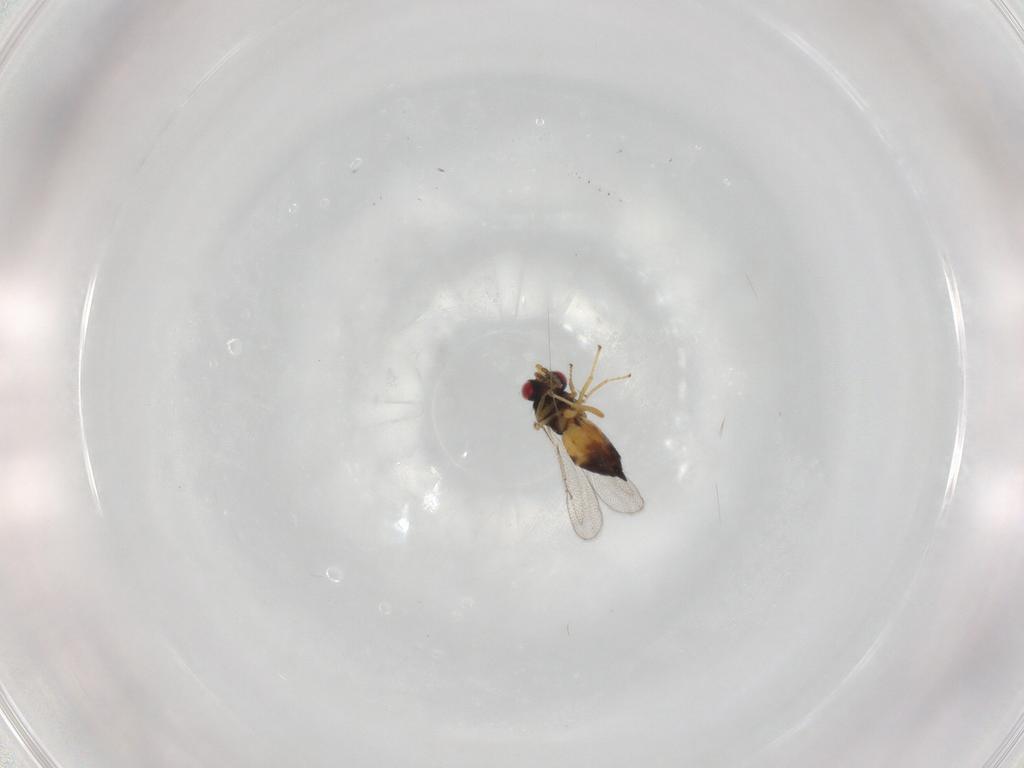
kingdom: Animalia
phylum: Arthropoda
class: Insecta
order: Hymenoptera
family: Eulophidae
